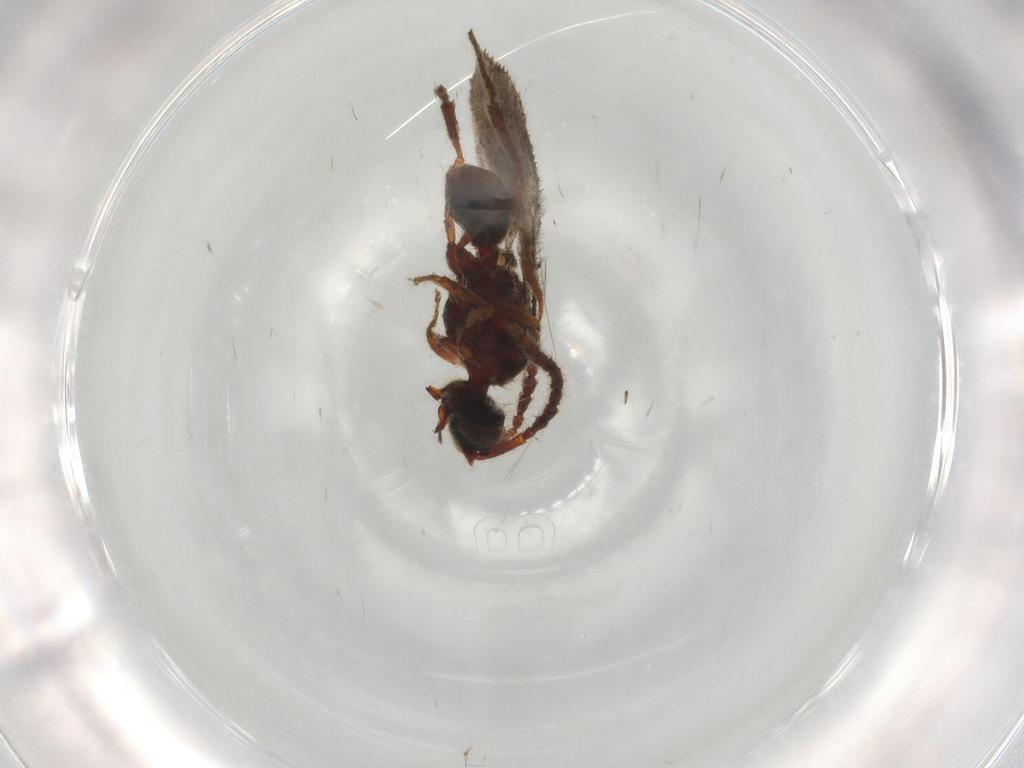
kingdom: Animalia
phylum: Arthropoda
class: Insecta
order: Hymenoptera
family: Diapriidae
